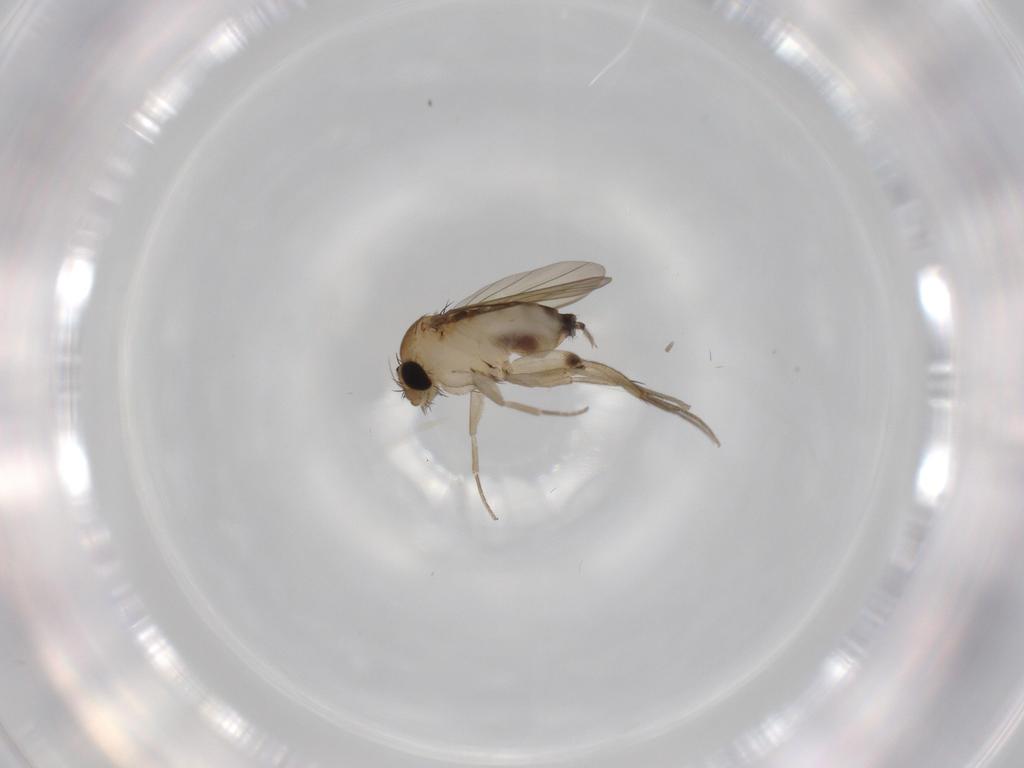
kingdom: Animalia
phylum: Arthropoda
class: Insecta
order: Diptera
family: Phoridae
